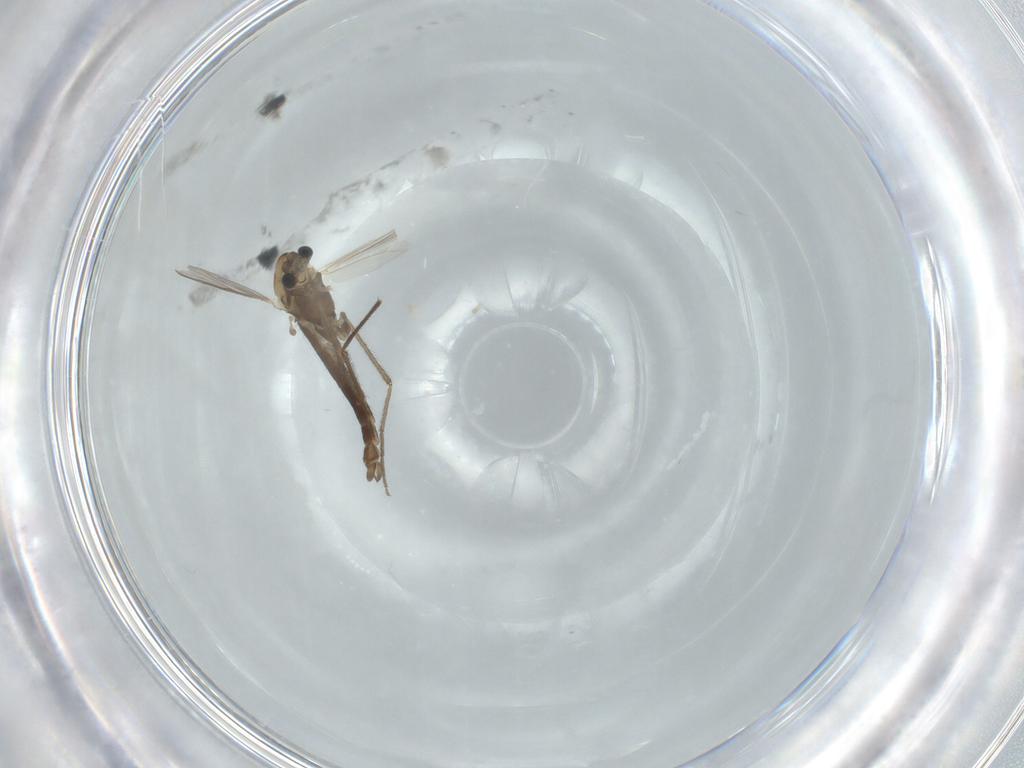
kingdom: Animalia
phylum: Arthropoda
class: Insecta
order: Diptera
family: Chironomidae
